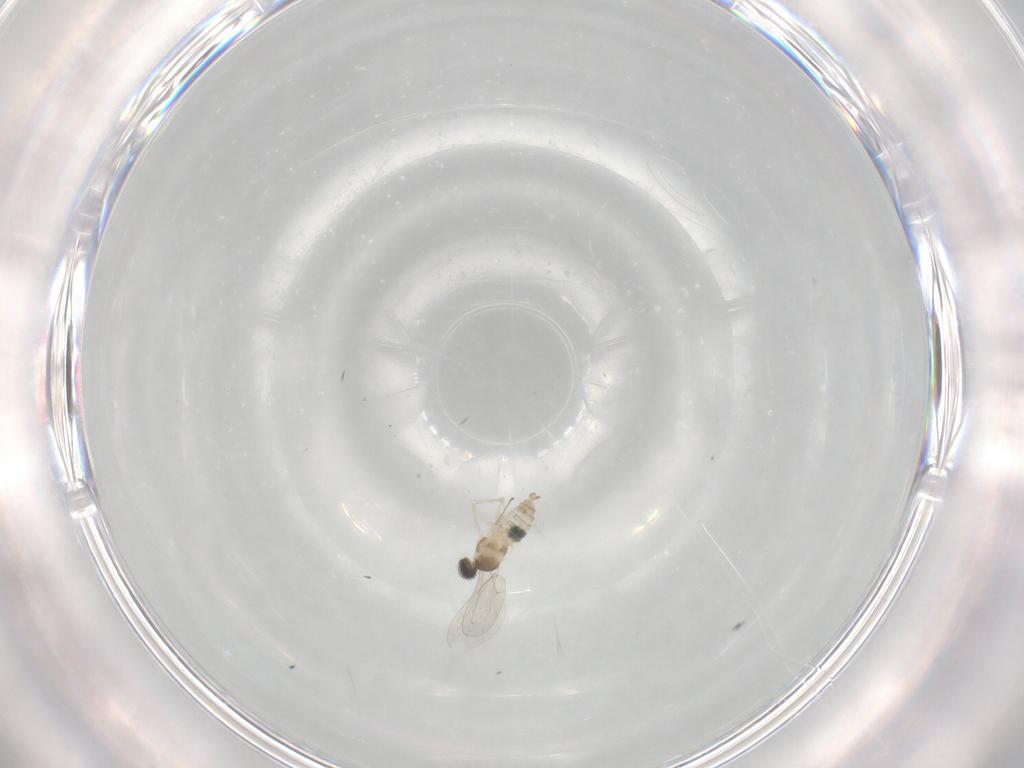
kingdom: Animalia
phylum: Arthropoda
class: Insecta
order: Diptera
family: Cecidomyiidae
